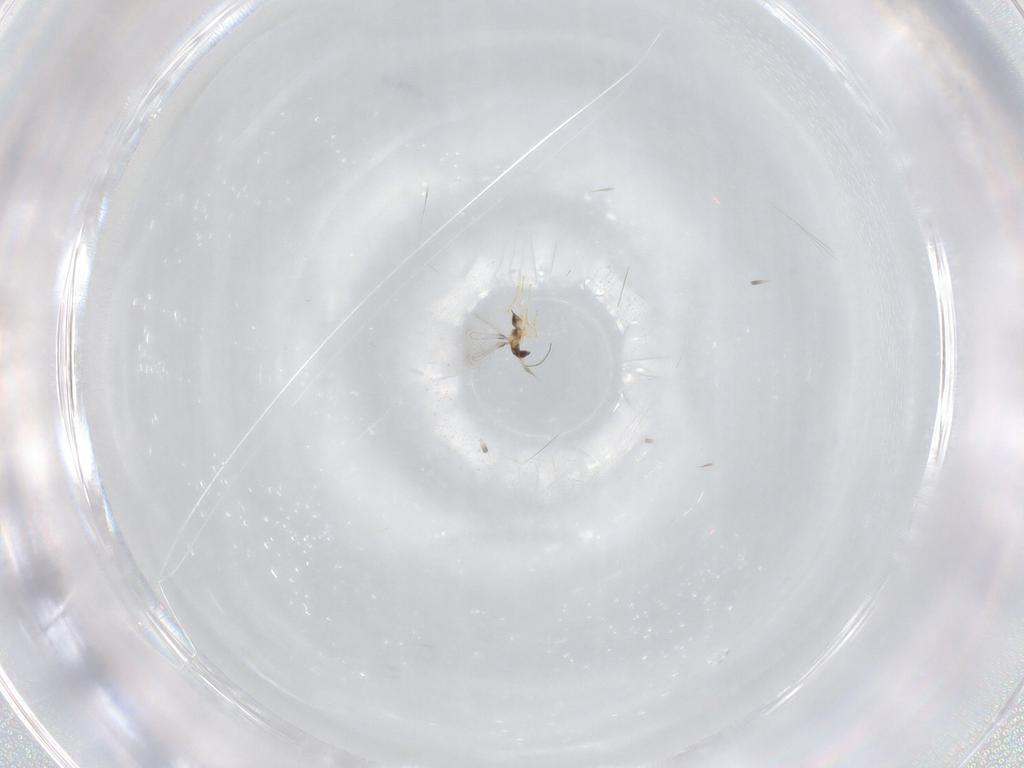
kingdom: Animalia
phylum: Arthropoda
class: Insecta
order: Hymenoptera
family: Mymaridae
